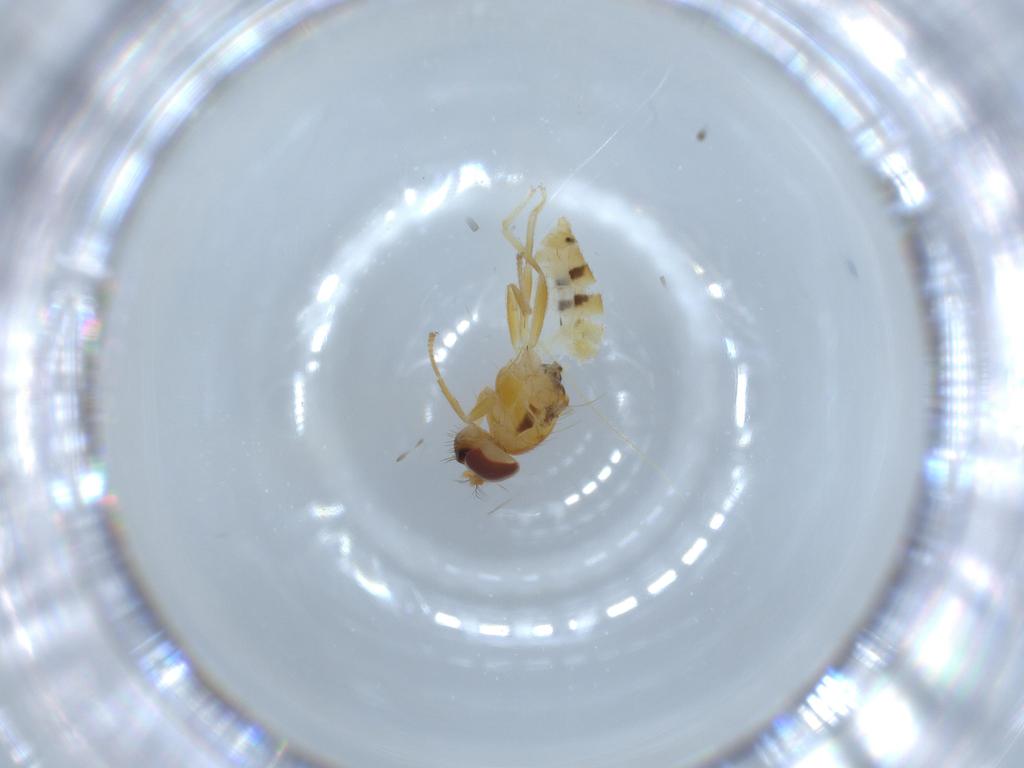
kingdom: Animalia
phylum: Arthropoda
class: Insecta
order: Diptera
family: Periscelididae
